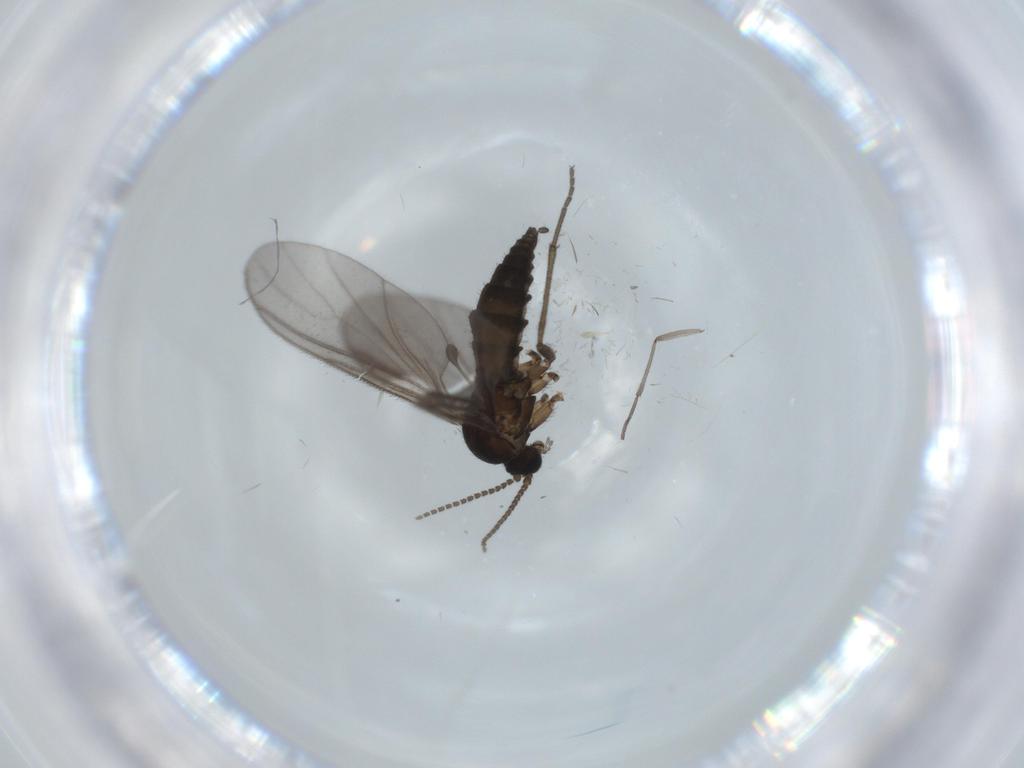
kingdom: Animalia
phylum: Arthropoda
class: Insecta
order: Diptera
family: Sciaridae
